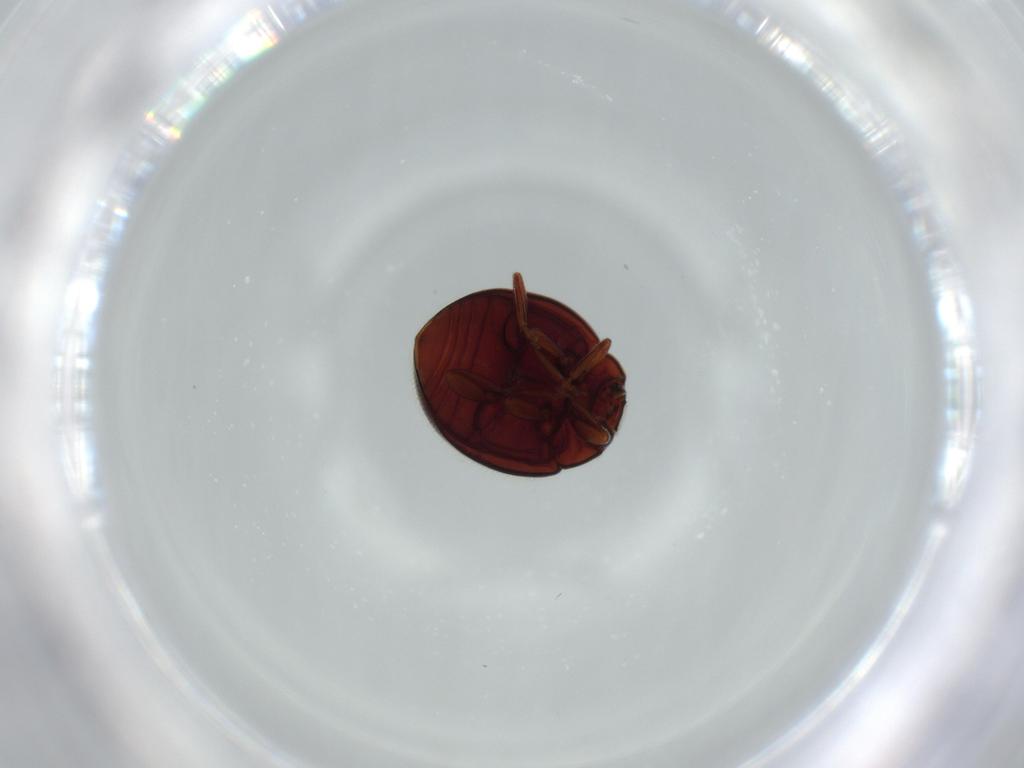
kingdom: Animalia
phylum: Arthropoda
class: Insecta
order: Coleoptera
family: Coccinellidae
